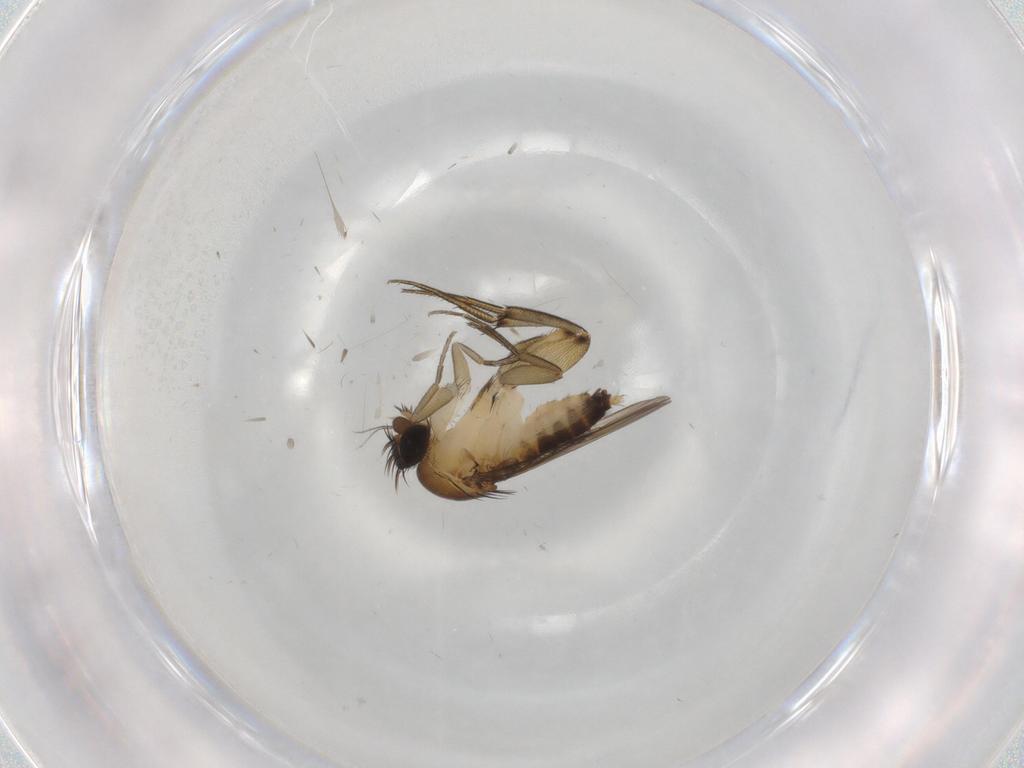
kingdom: Animalia
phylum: Arthropoda
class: Insecta
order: Diptera
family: Phoridae
